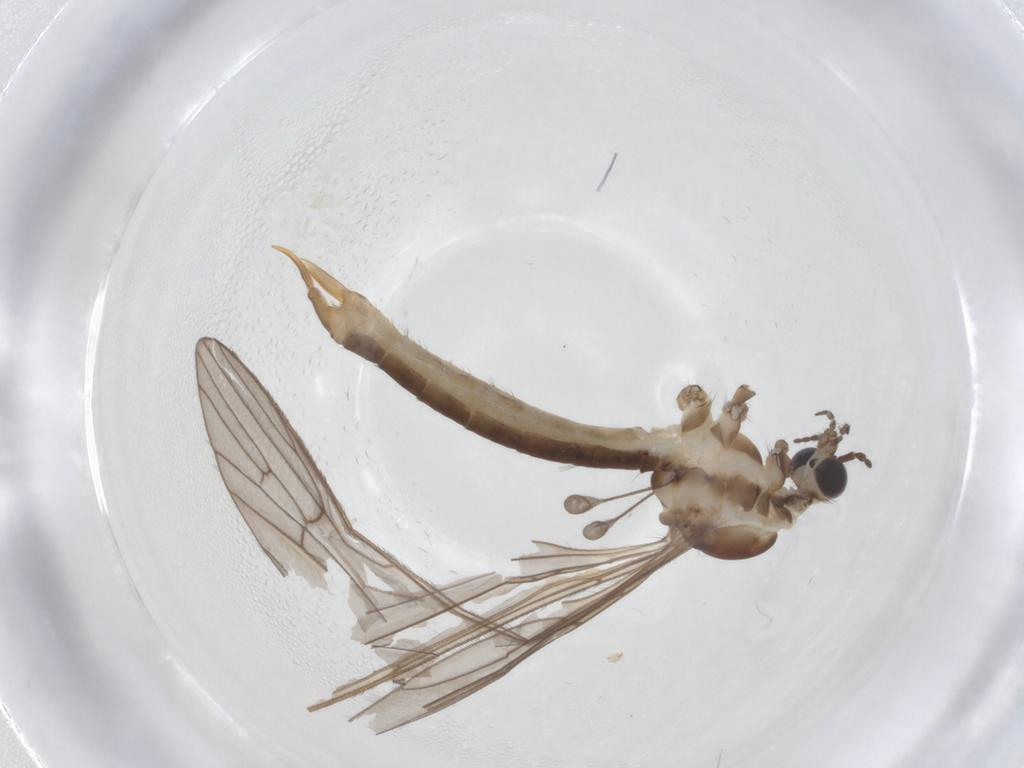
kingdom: Animalia
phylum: Arthropoda
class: Insecta
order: Diptera
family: Limoniidae
